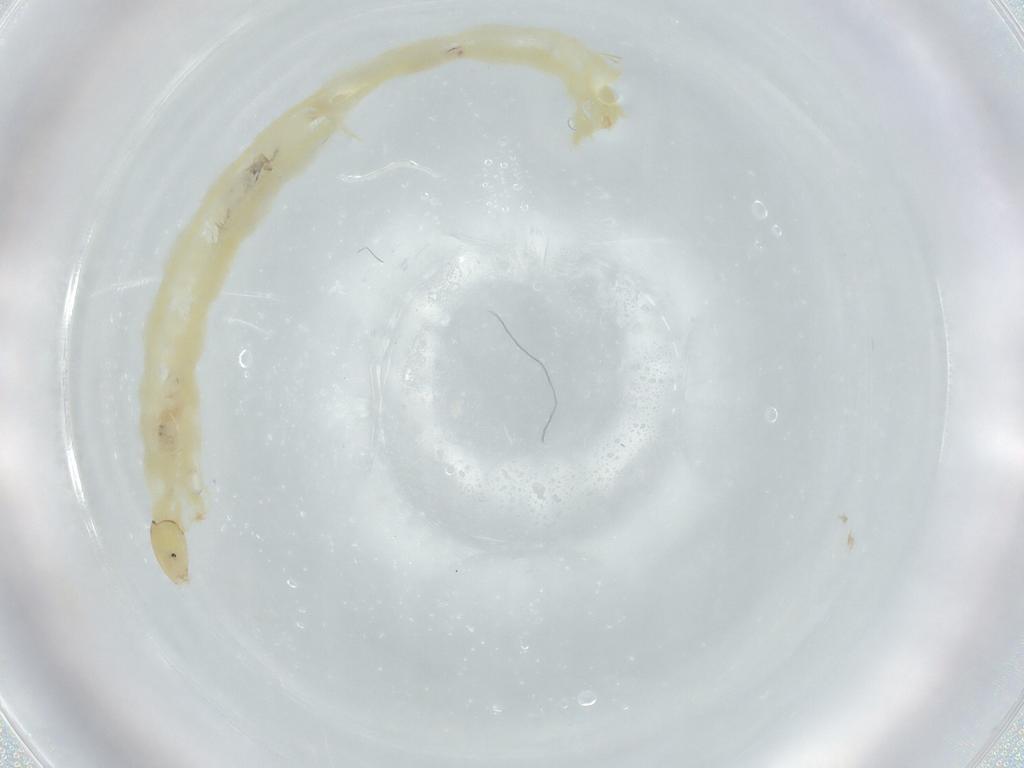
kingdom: Animalia
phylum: Arthropoda
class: Insecta
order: Diptera
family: Chironomidae
